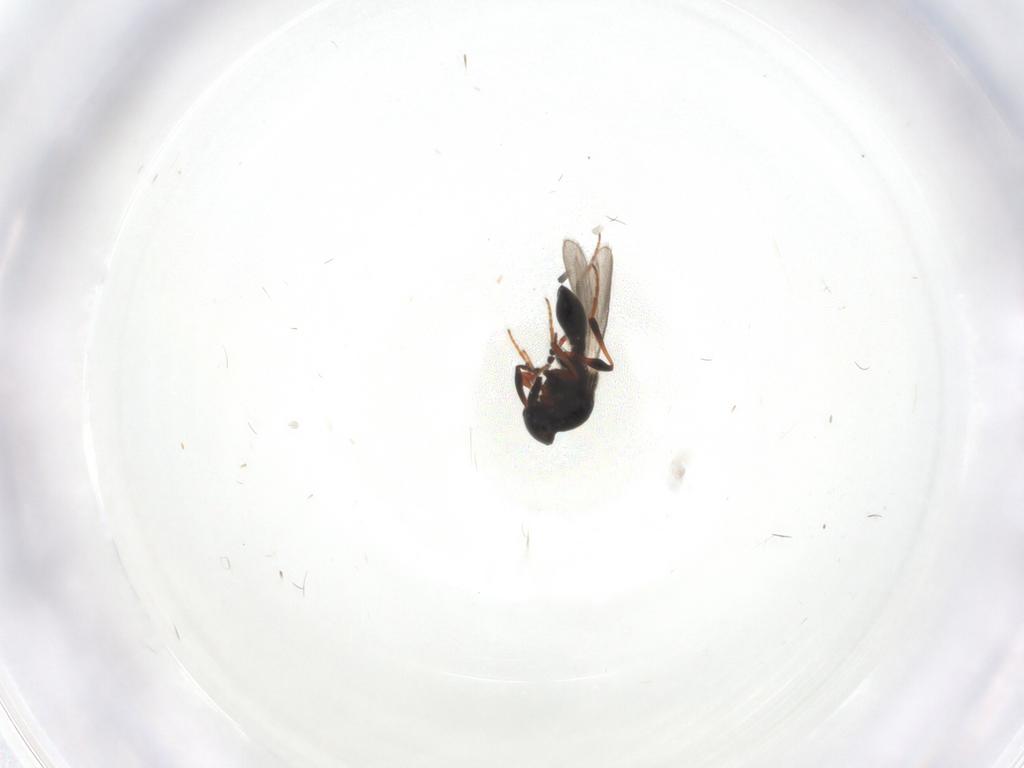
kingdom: Animalia
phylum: Arthropoda
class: Insecta
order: Hymenoptera
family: Platygastridae
